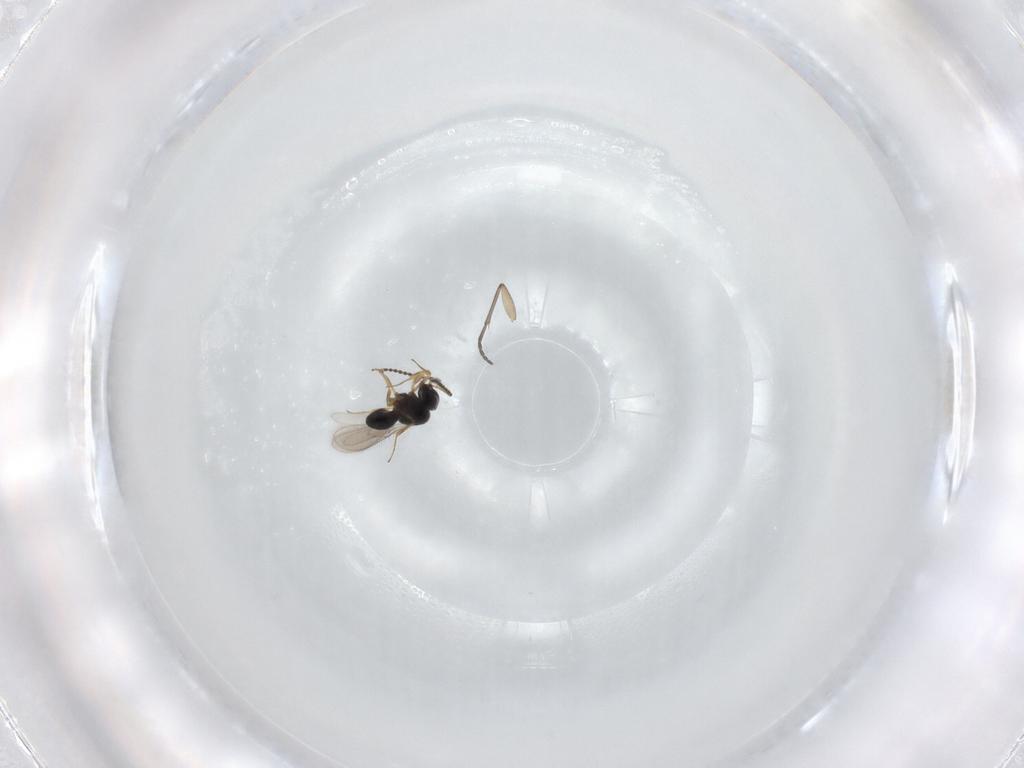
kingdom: Animalia
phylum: Arthropoda
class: Insecta
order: Hymenoptera
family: Scelionidae
